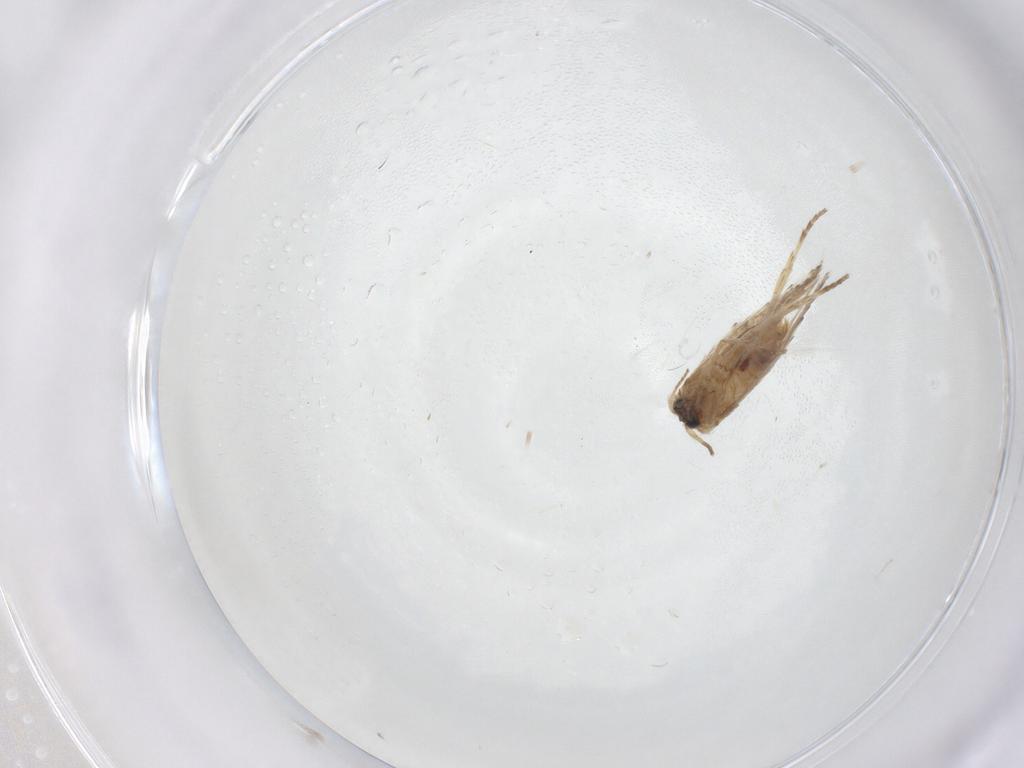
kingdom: Animalia
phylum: Arthropoda
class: Insecta
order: Lepidoptera
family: Nepticulidae
